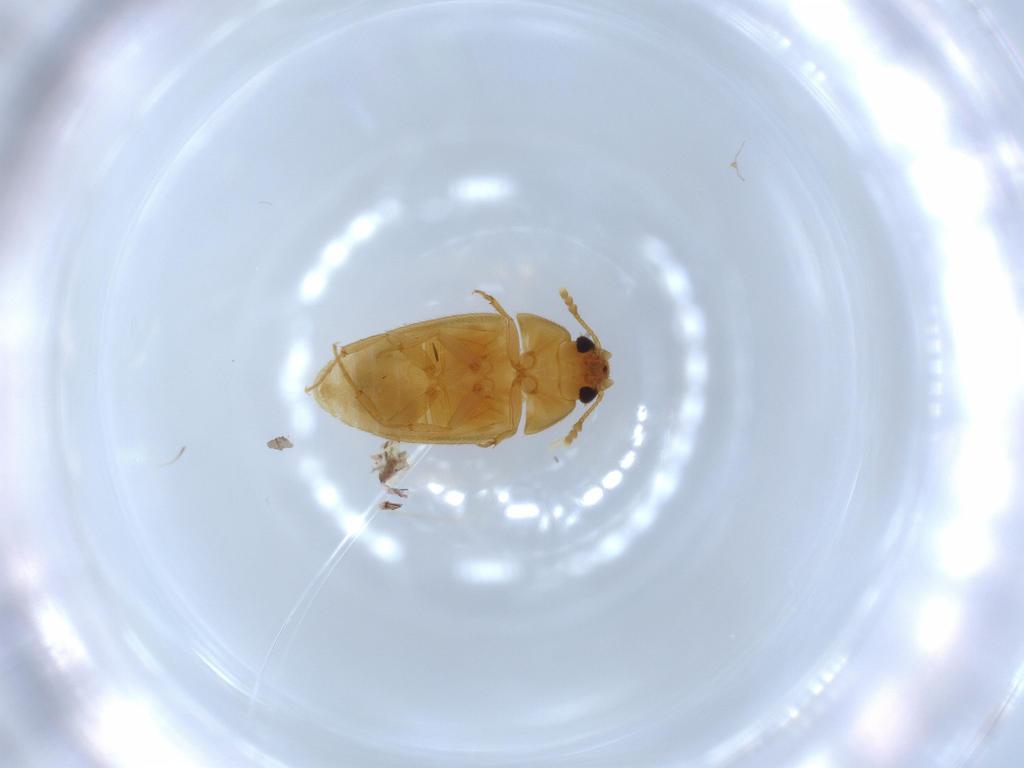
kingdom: Animalia
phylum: Arthropoda
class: Insecta
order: Coleoptera
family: Mycetophagidae
